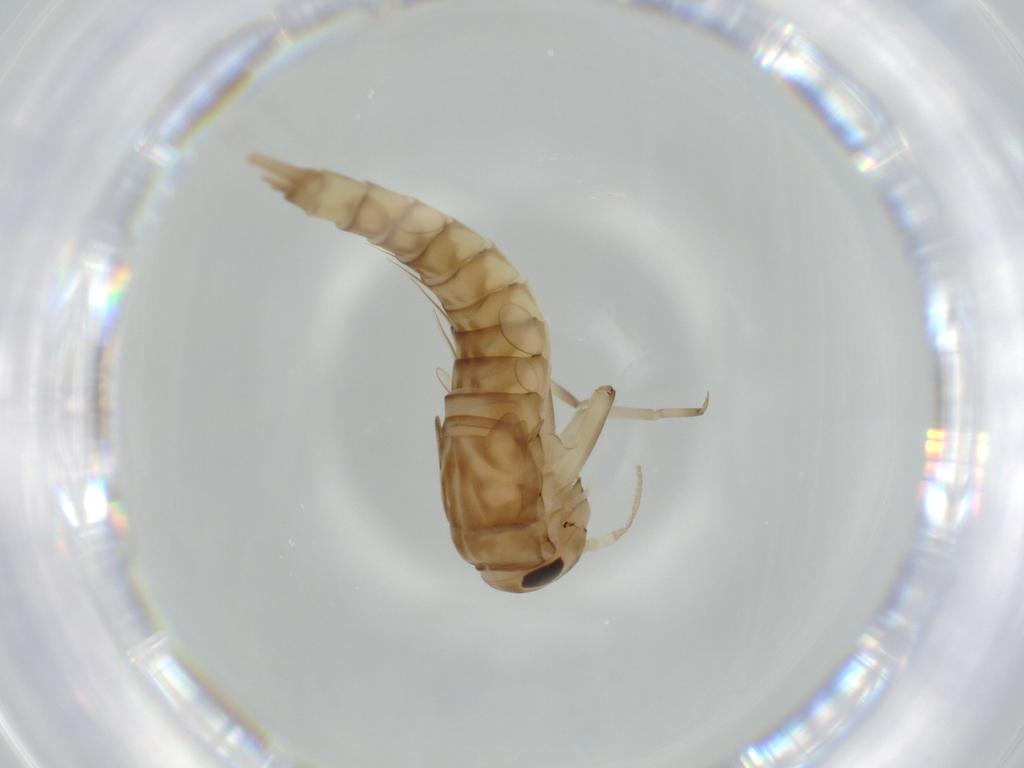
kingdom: Animalia
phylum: Arthropoda
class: Insecta
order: Ephemeroptera
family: Baetidae
